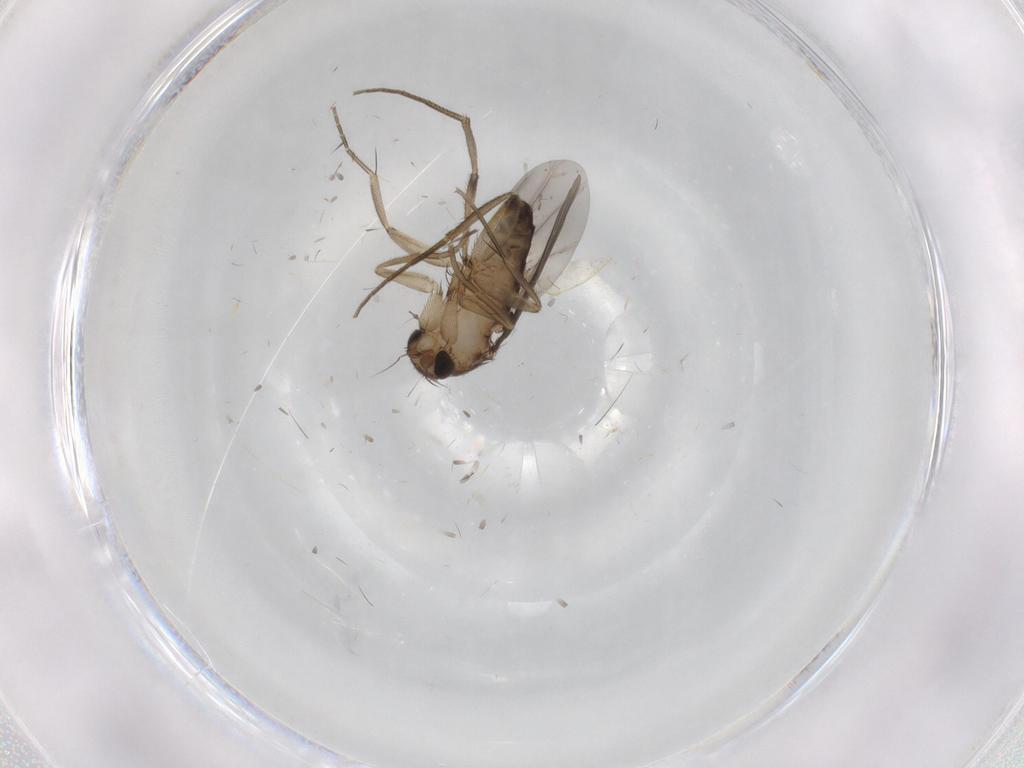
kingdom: Animalia
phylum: Arthropoda
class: Insecta
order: Diptera
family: Phoridae
